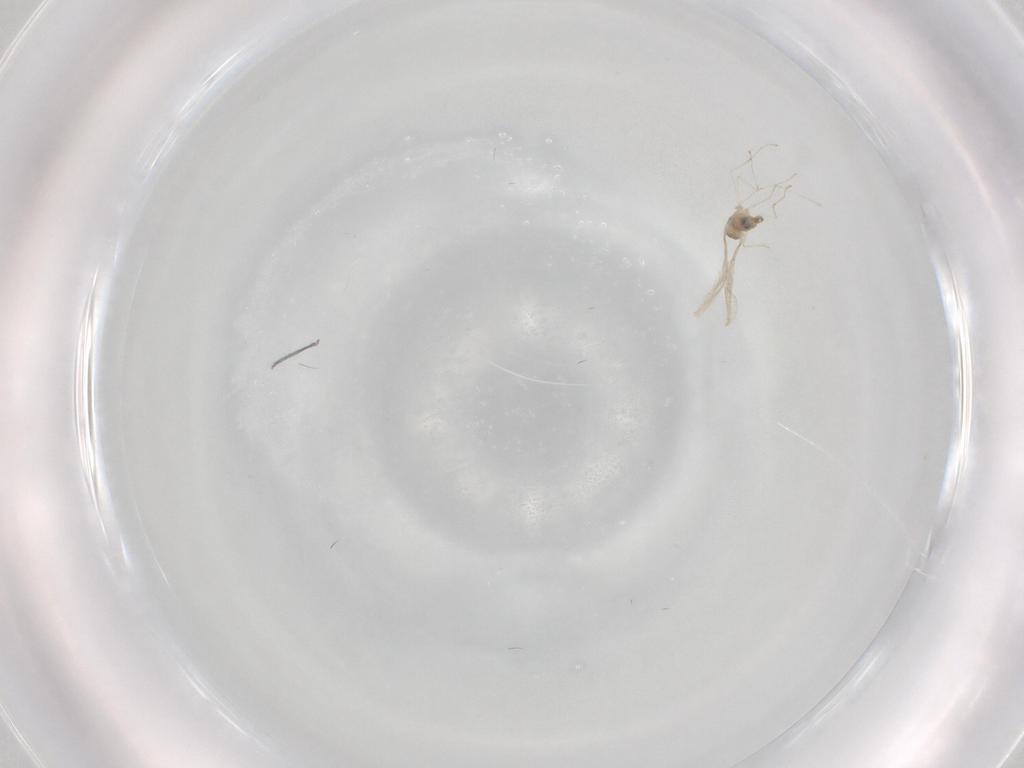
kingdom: Animalia
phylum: Arthropoda
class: Insecta
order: Diptera
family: Cecidomyiidae
